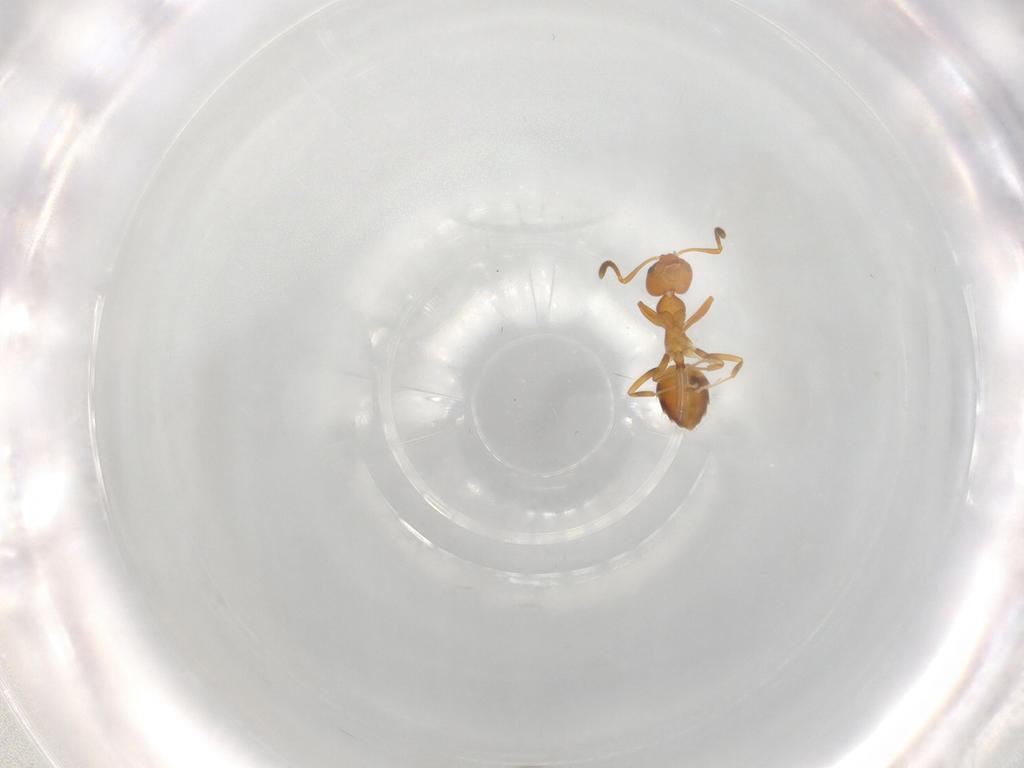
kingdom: Animalia
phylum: Arthropoda
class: Insecta
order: Hymenoptera
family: Formicidae
